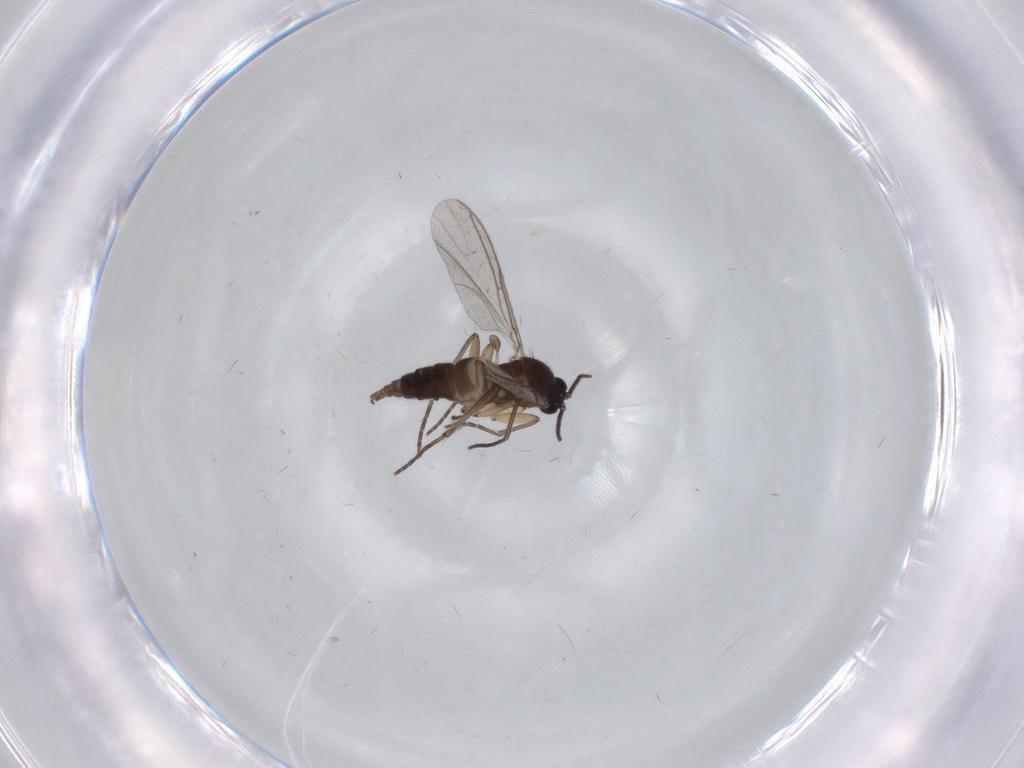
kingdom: Animalia
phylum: Arthropoda
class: Insecta
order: Diptera
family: Sciaridae
